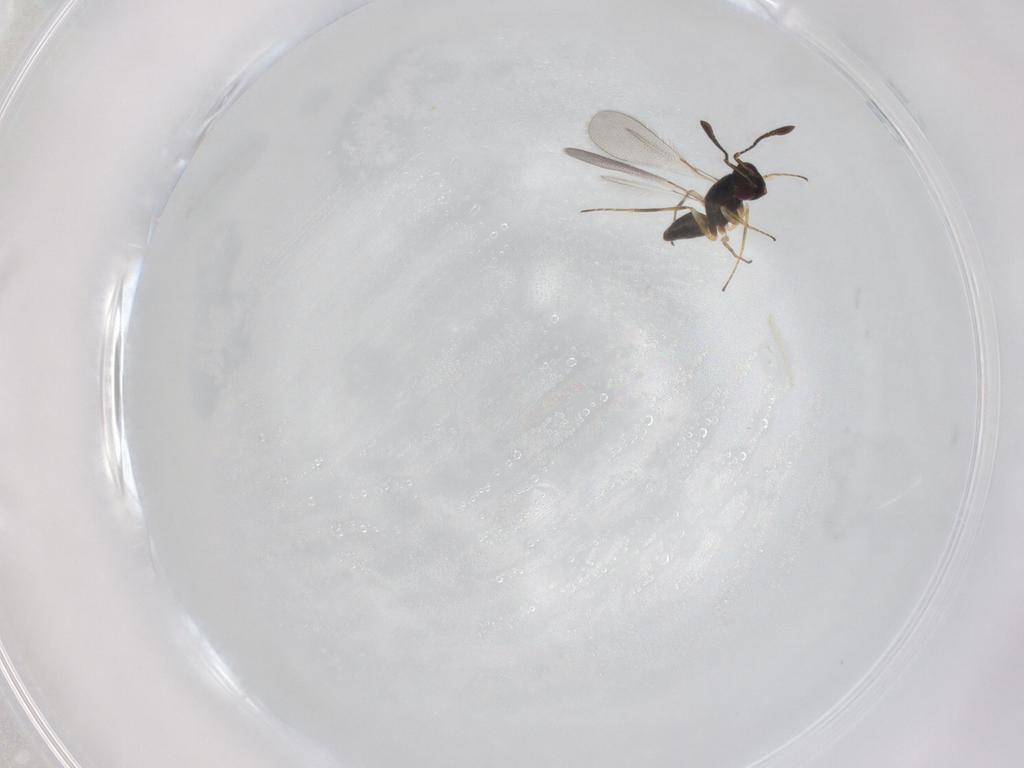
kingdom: Animalia
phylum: Arthropoda
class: Insecta
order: Hymenoptera
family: Mymaridae
